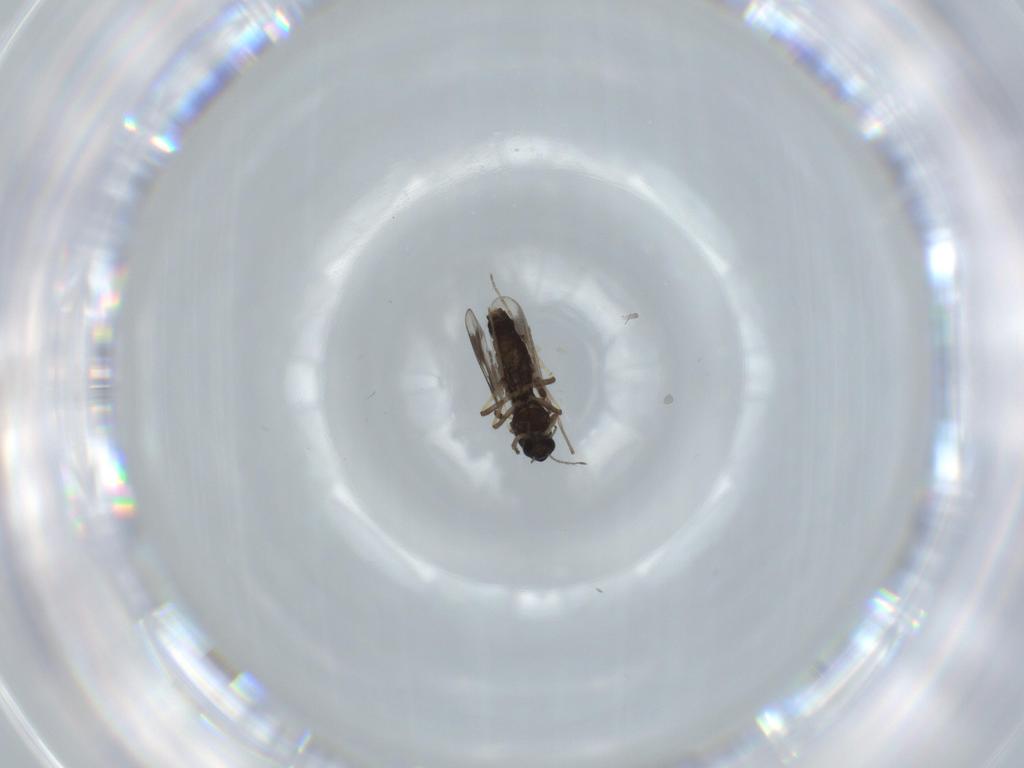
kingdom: Animalia
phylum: Arthropoda
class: Insecta
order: Diptera
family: Chironomidae
